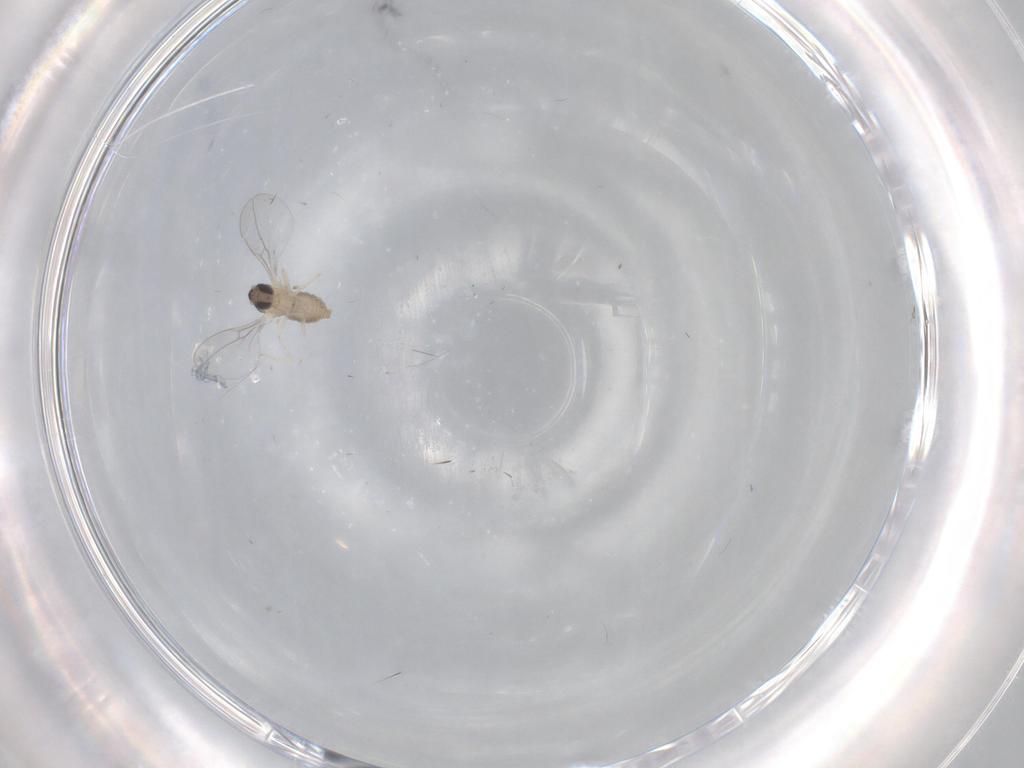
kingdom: Animalia
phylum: Arthropoda
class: Insecta
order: Diptera
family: Cecidomyiidae
